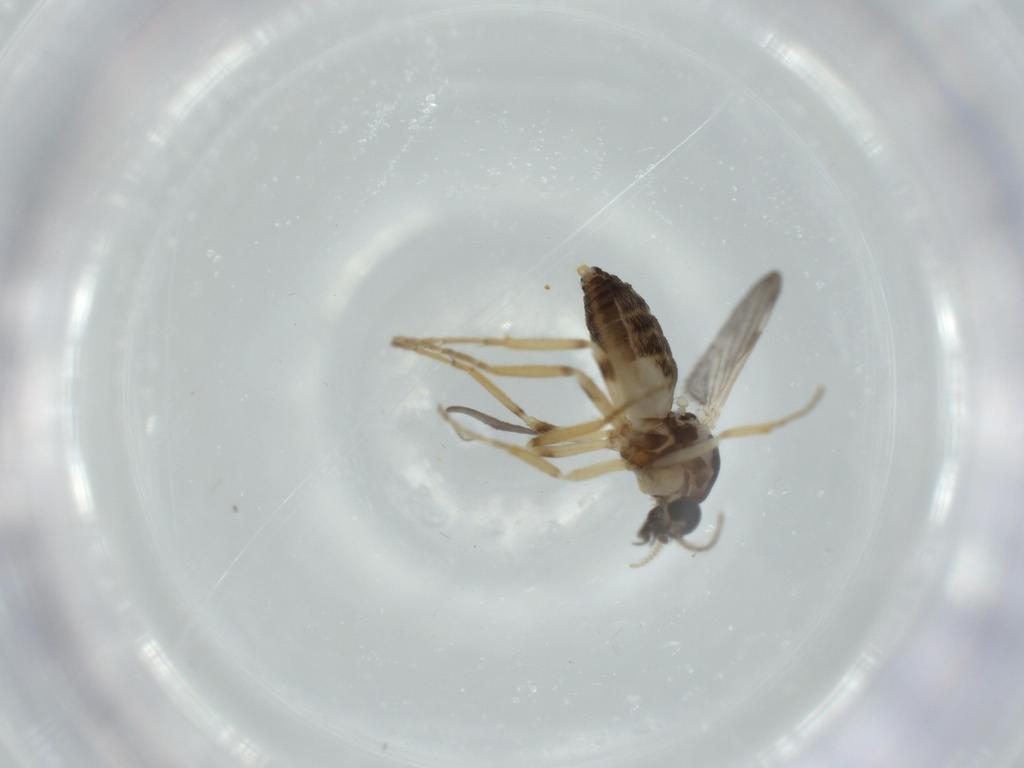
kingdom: Animalia
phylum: Arthropoda
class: Insecta
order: Diptera
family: Ceratopogonidae
